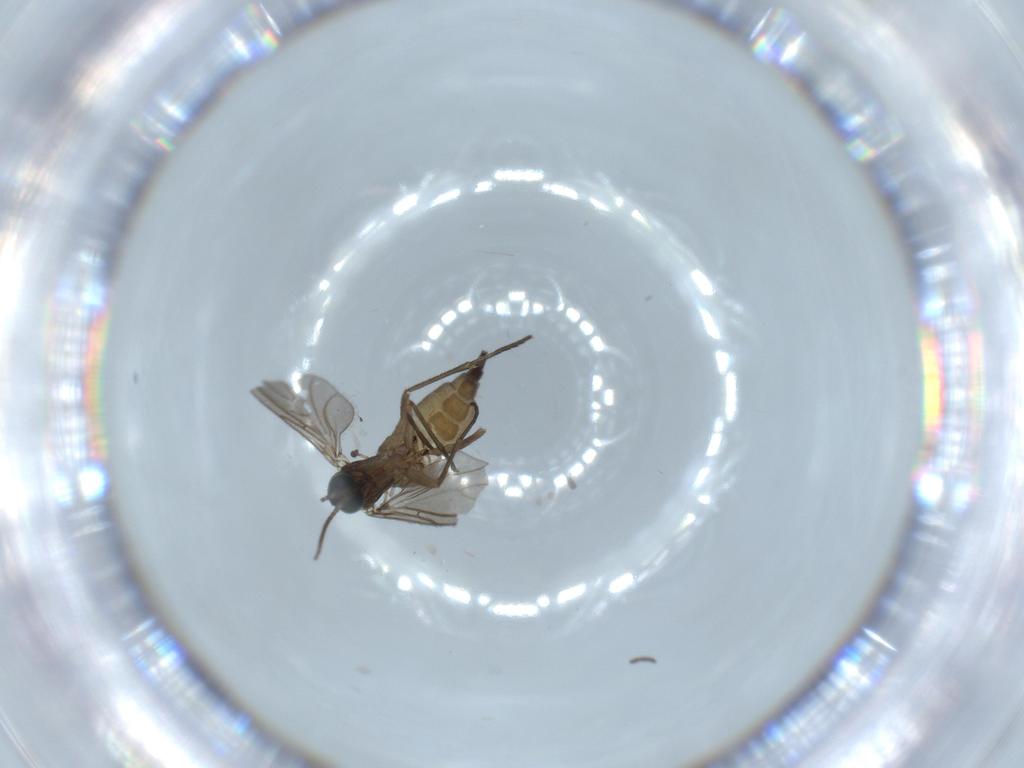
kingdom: Animalia
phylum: Arthropoda
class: Insecta
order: Diptera
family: Sciaridae
